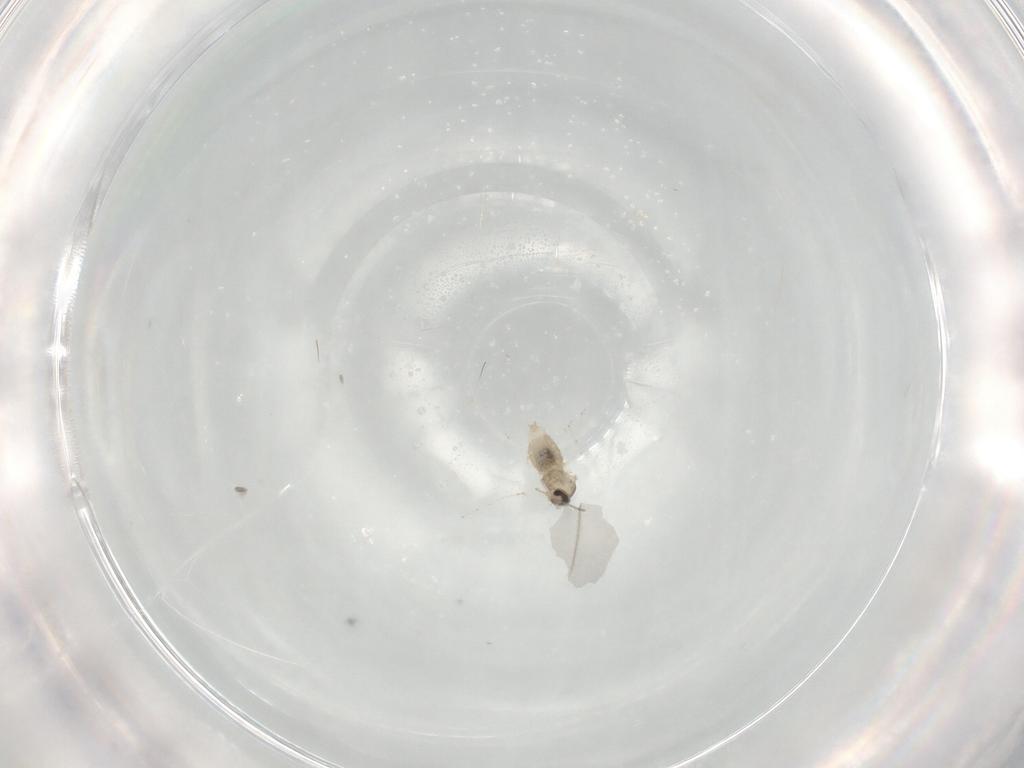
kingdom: Animalia
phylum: Arthropoda
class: Insecta
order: Diptera
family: Cecidomyiidae
